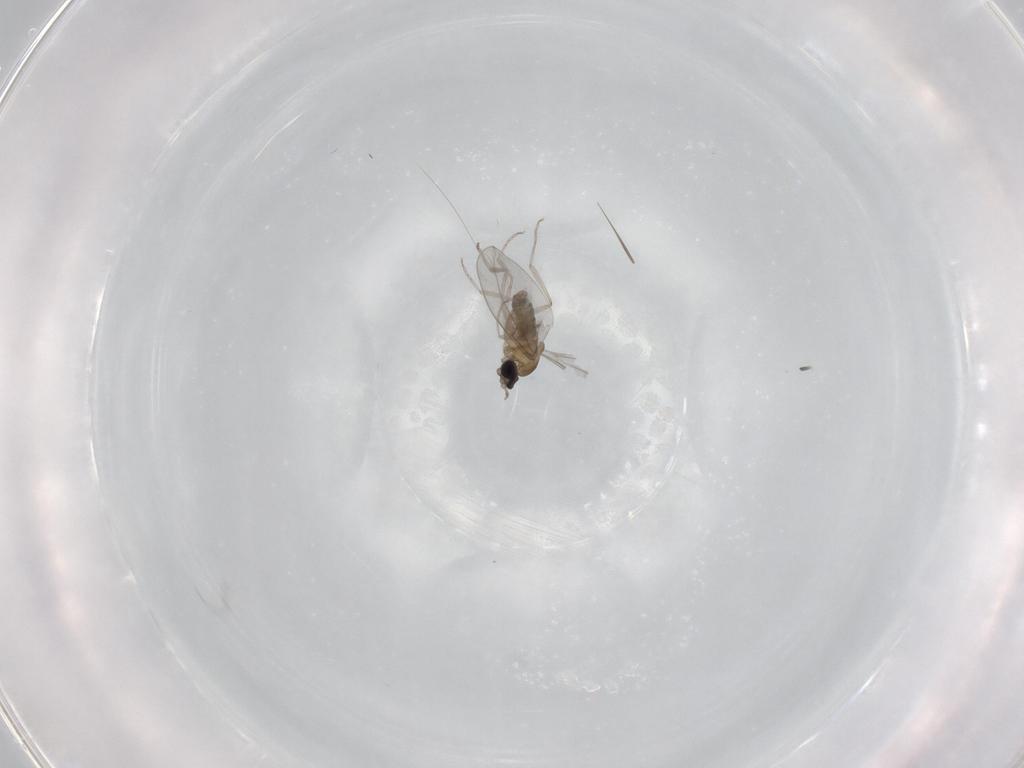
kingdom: Animalia
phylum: Arthropoda
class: Insecta
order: Diptera
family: Cecidomyiidae
